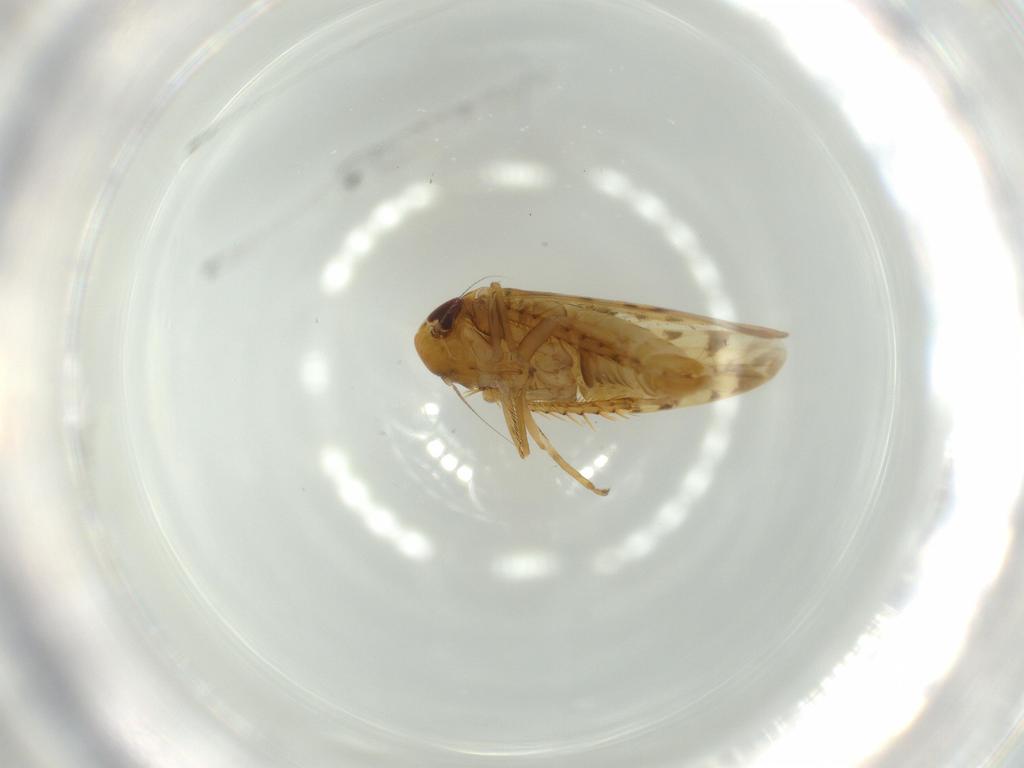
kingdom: Animalia
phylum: Arthropoda
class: Insecta
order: Hemiptera
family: Cicadellidae
